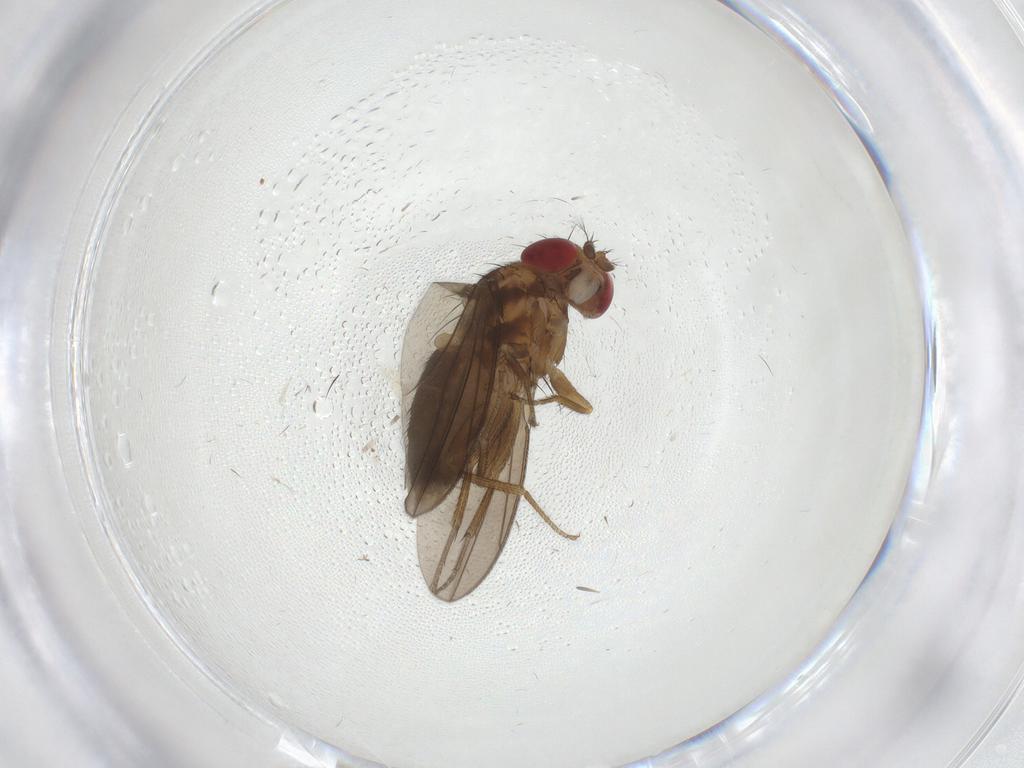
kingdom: Animalia
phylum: Arthropoda
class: Insecta
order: Diptera
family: Drosophilidae
